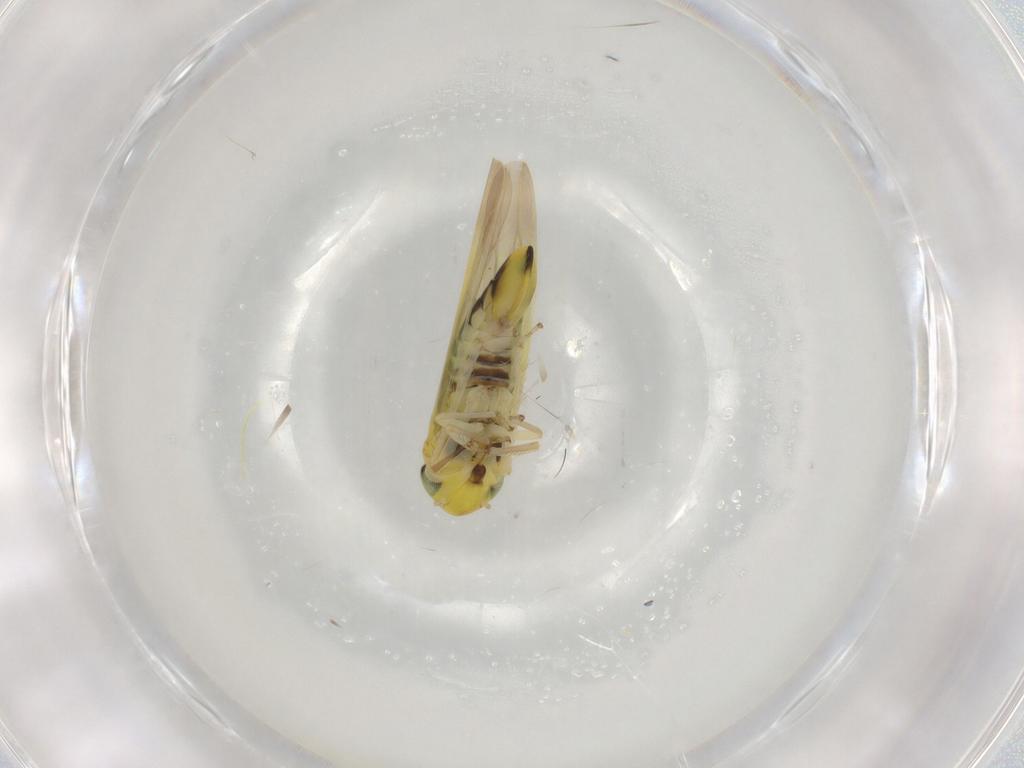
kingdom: Animalia
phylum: Arthropoda
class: Insecta
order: Hemiptera
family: Cicadellidae
